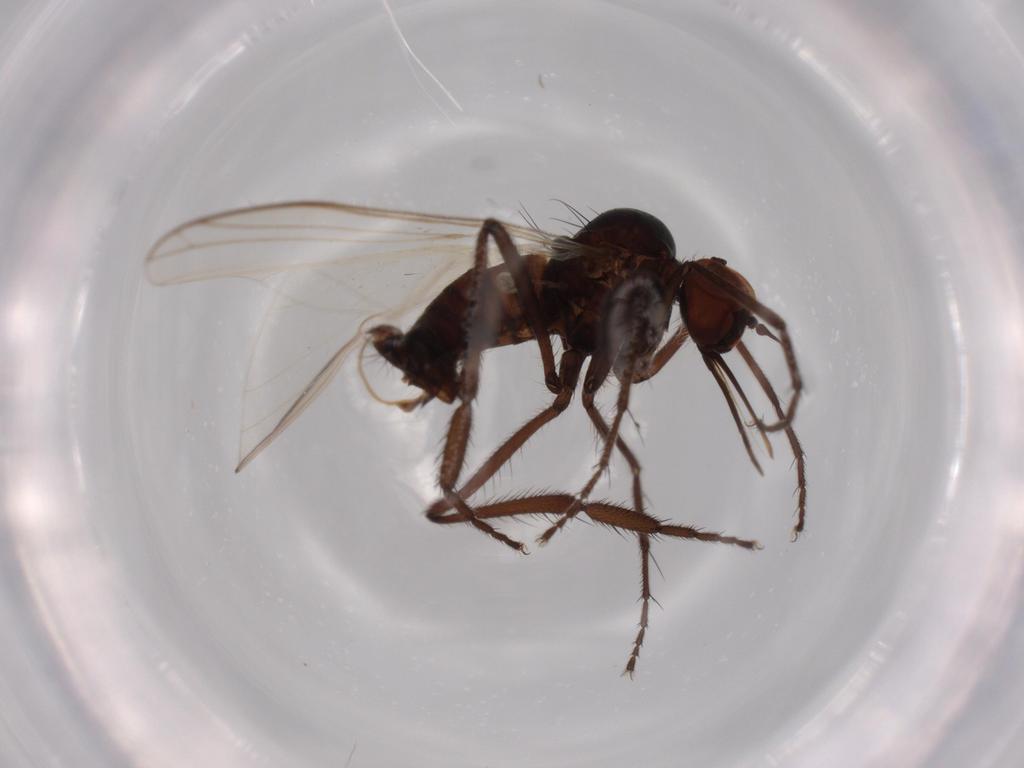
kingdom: Animalia
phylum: Arthropoda
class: Insecta
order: Diptera
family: Empididae
